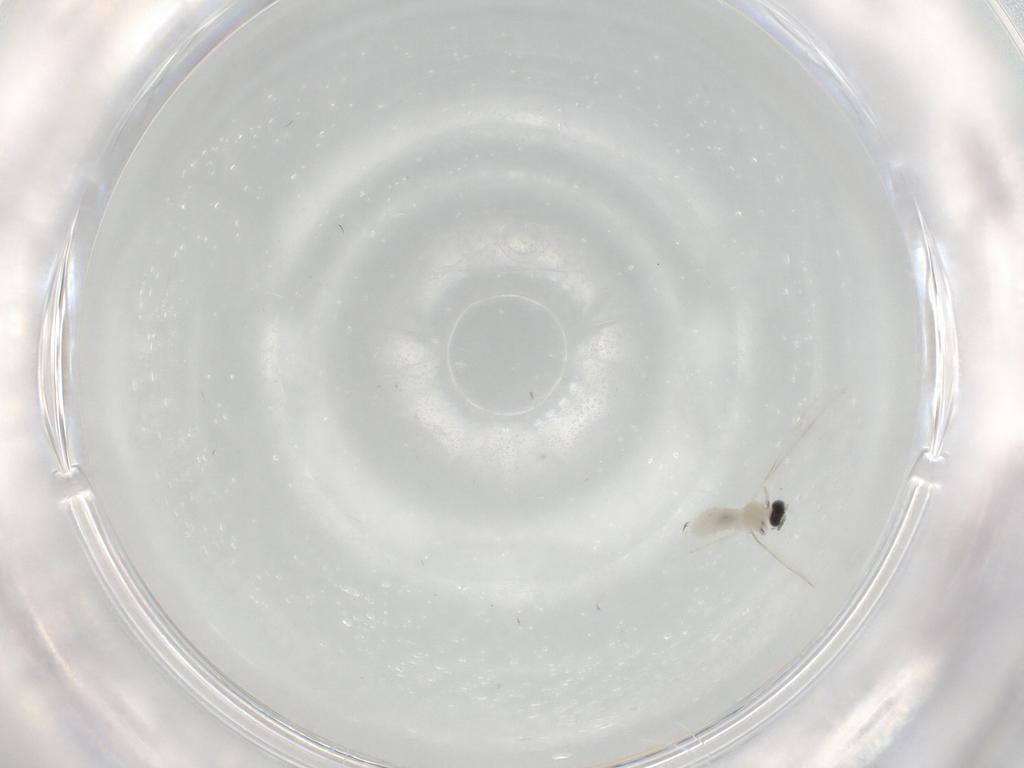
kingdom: Animalia
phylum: Arthropoda
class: Insecta
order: Diptera
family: Cecidomyiidae
